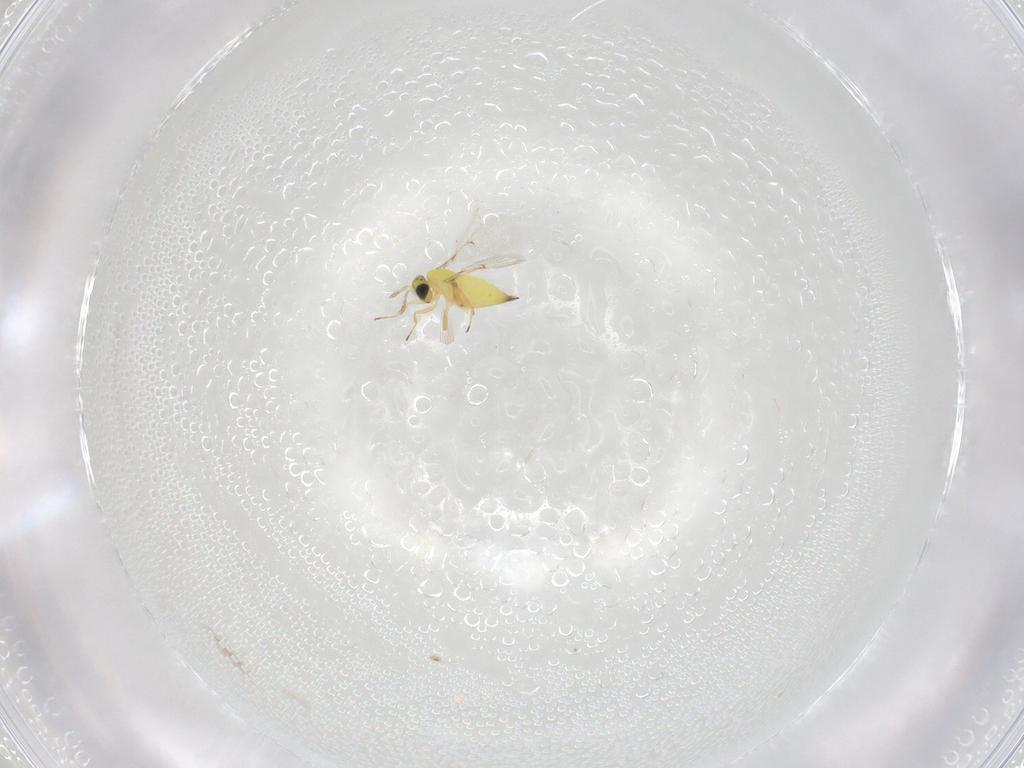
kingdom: Animalia
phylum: Arthropoda
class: Insecta
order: Hymenoptera
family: Trichogrammatidae
